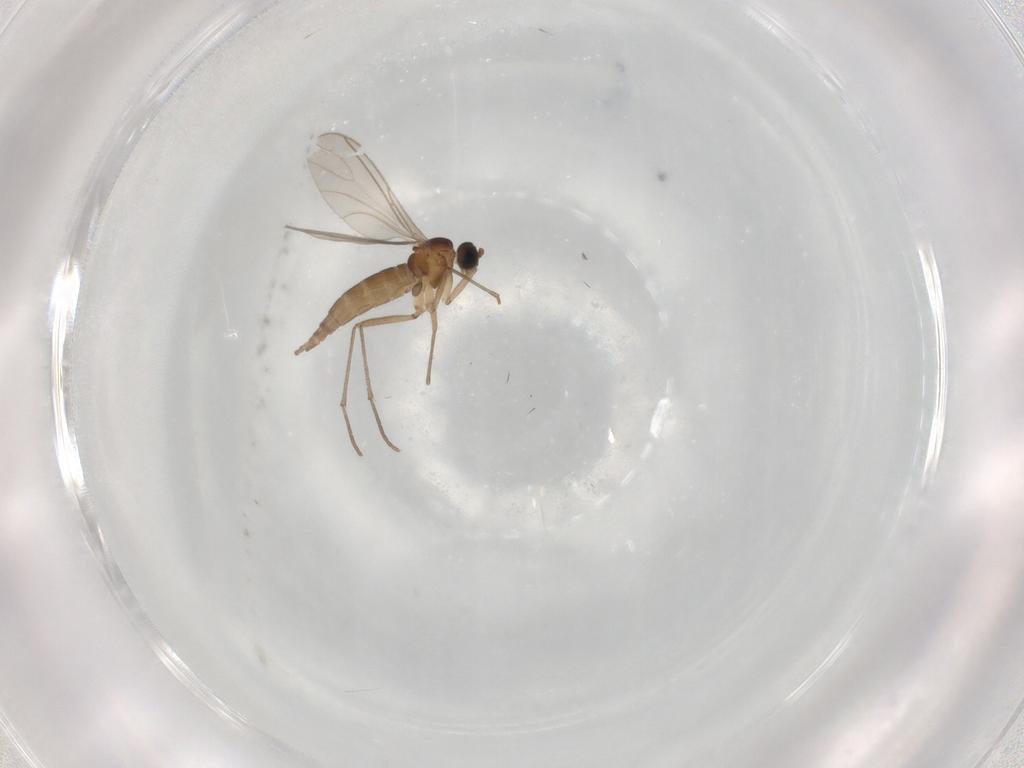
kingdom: Animalia
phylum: Arthropoda
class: Insecta
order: Diptera
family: Sciaridae
